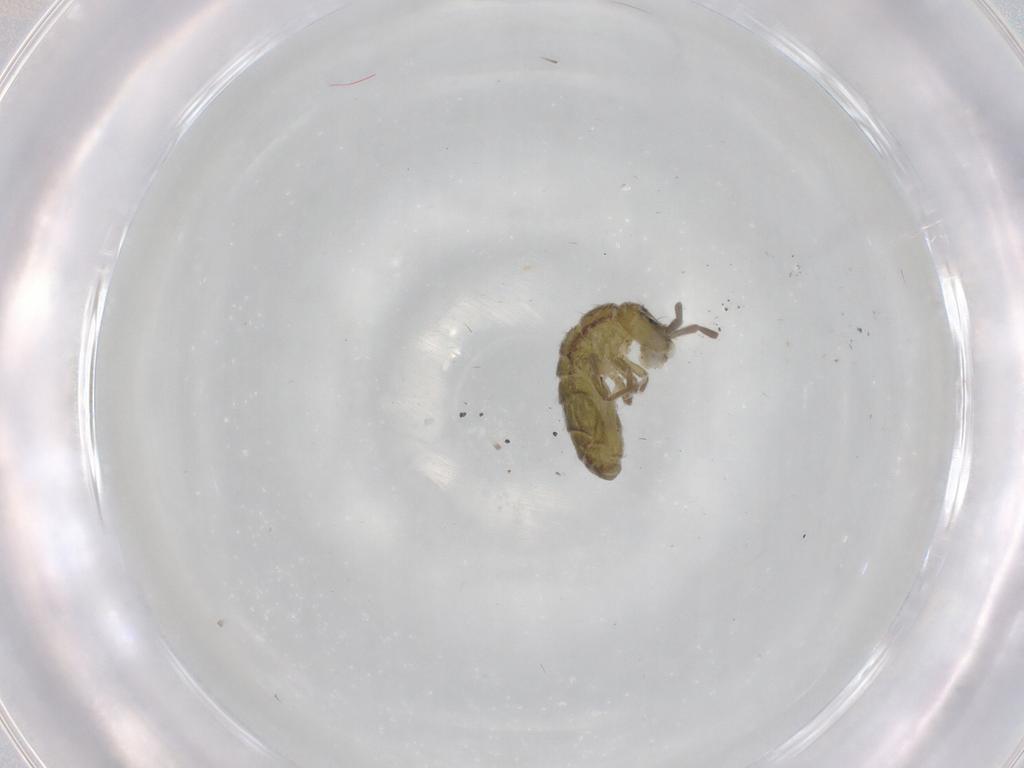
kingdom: Animalia
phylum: Arthropoda
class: Collembola
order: Entomobryomorpha
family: Isotomidae
